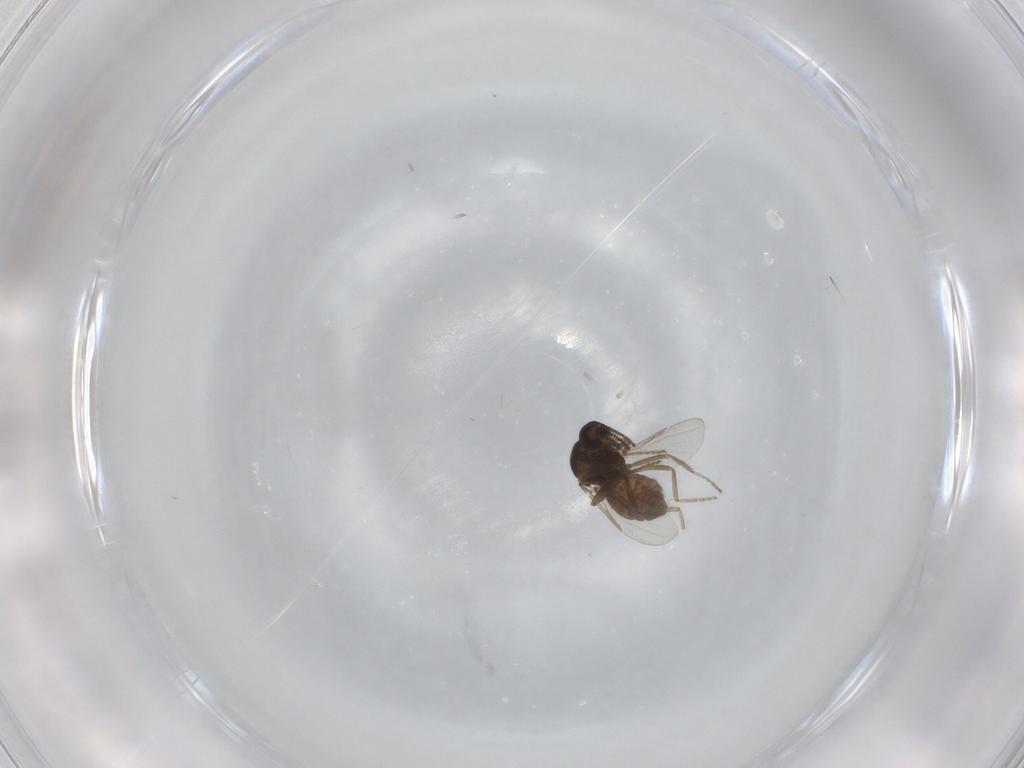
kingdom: Animalia
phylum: Arthropoda
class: Insecta
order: Diptera
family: Ceratopogonidae
